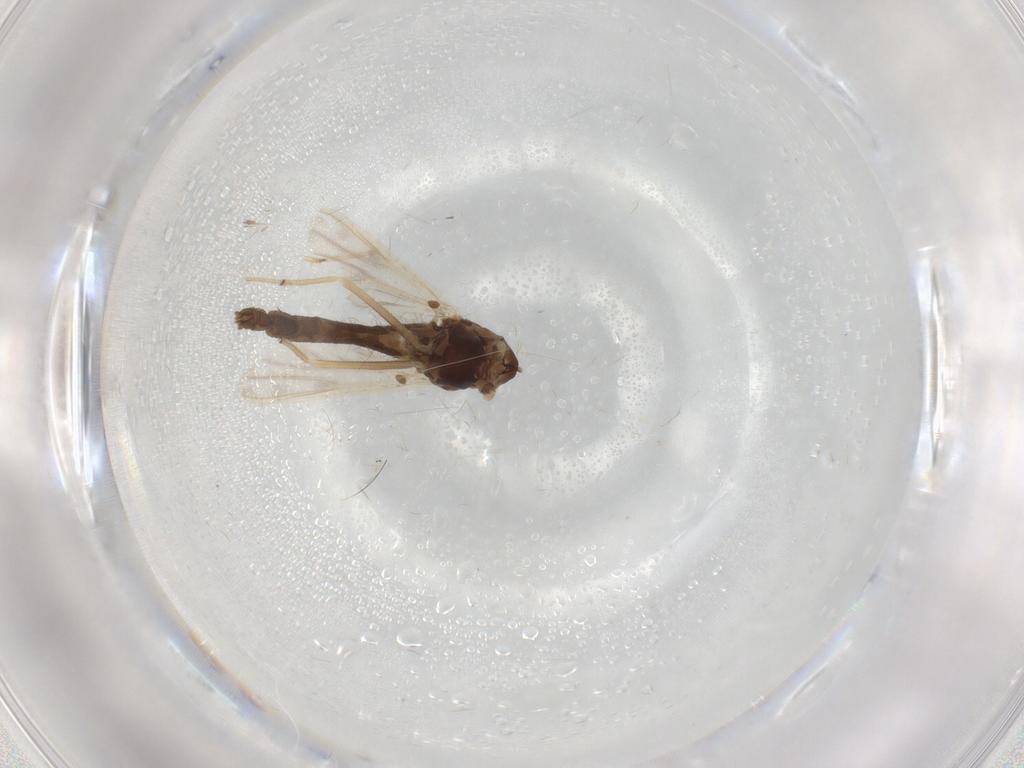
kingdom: Animalia
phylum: Arthropoda
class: Insecta
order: Diptera
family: Chironomidae
